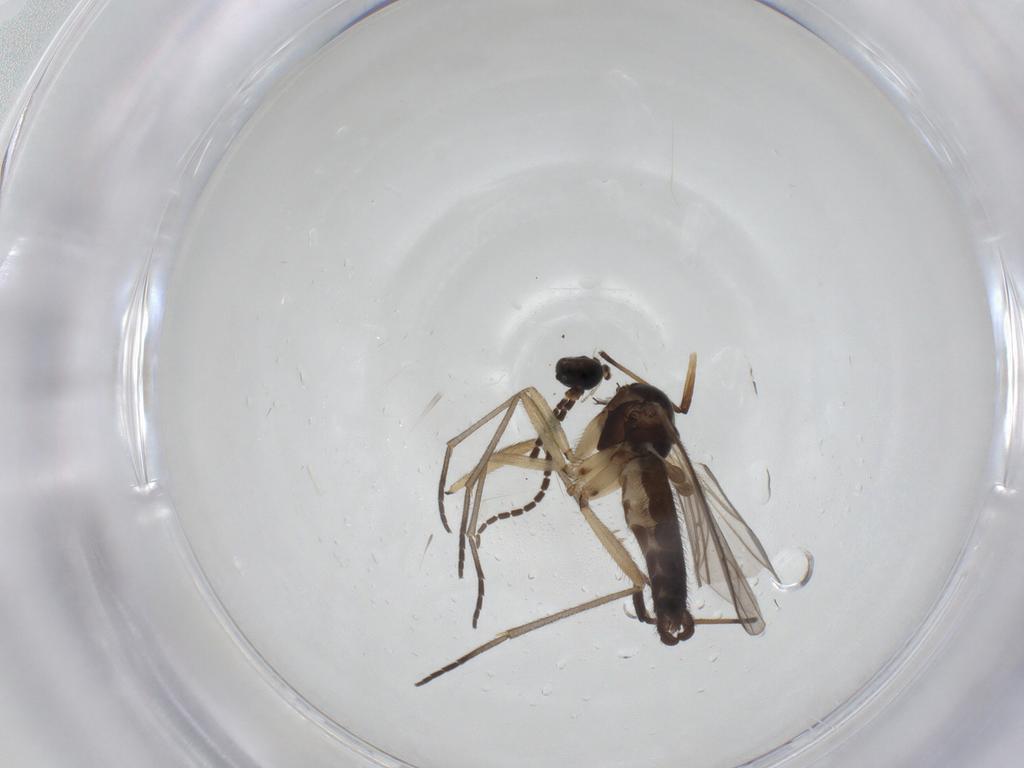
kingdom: Animalia
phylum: Arthropoda
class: Insecta
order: Diptera
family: Sciaridae
